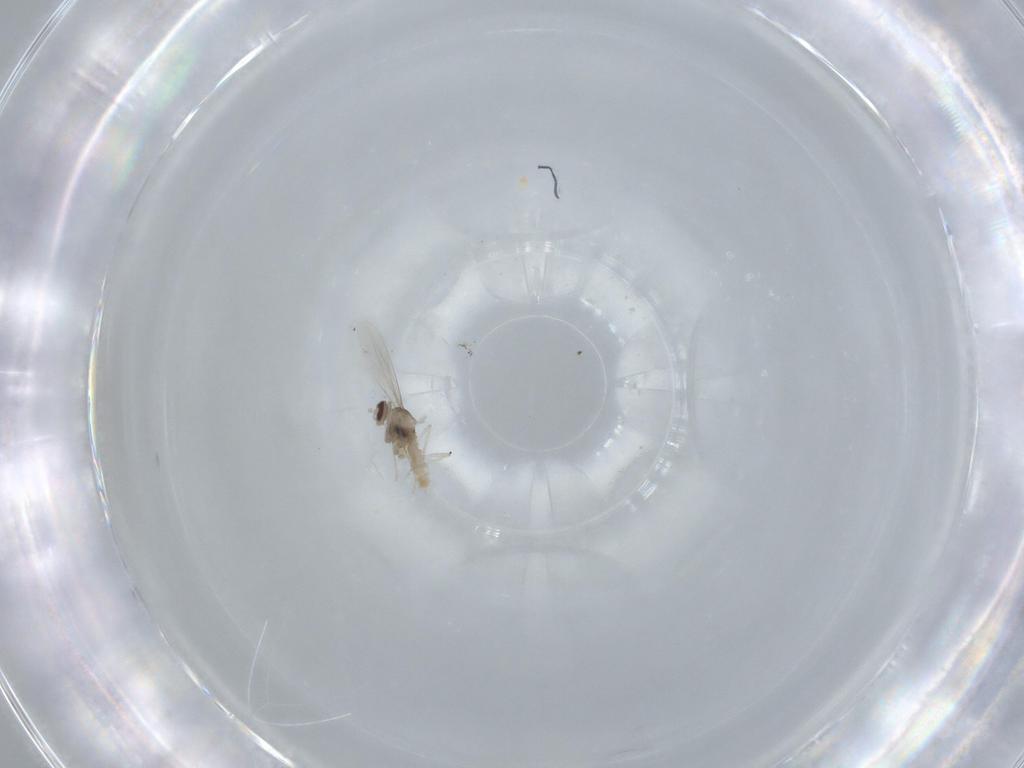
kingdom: Animalia
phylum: Arthropoda
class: Insecta
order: Diptera
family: Cecidomyiidae
